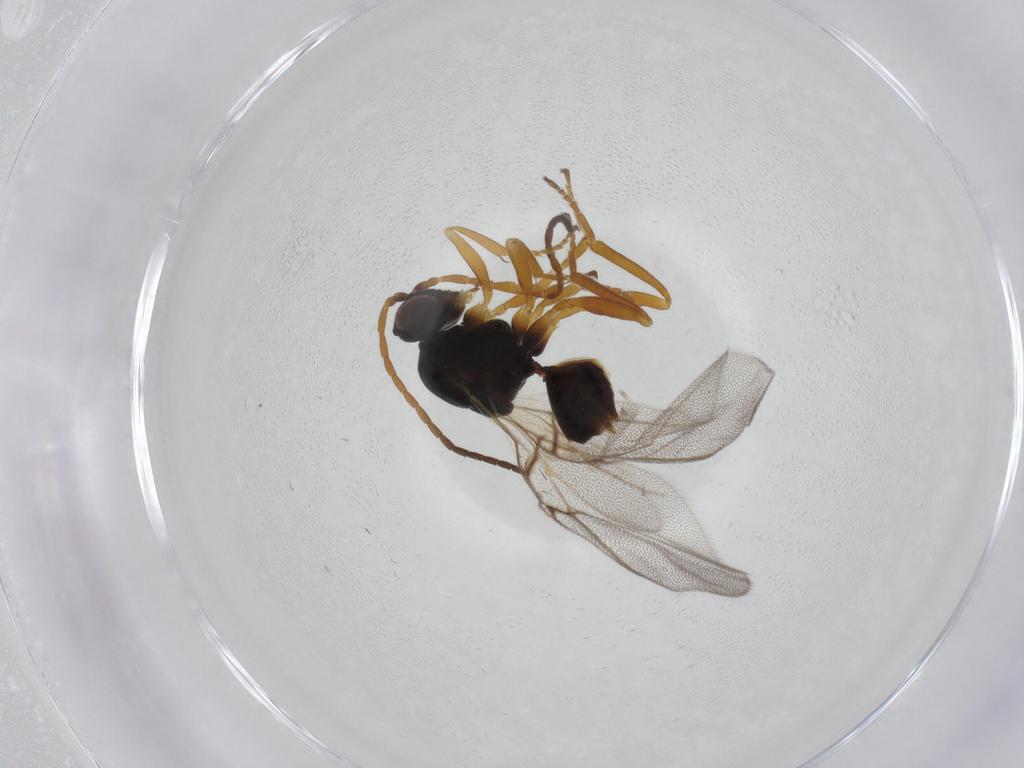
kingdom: Animalia
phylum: Arthropoda
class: Insecta
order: Hymenoptera
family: Cynipidae
